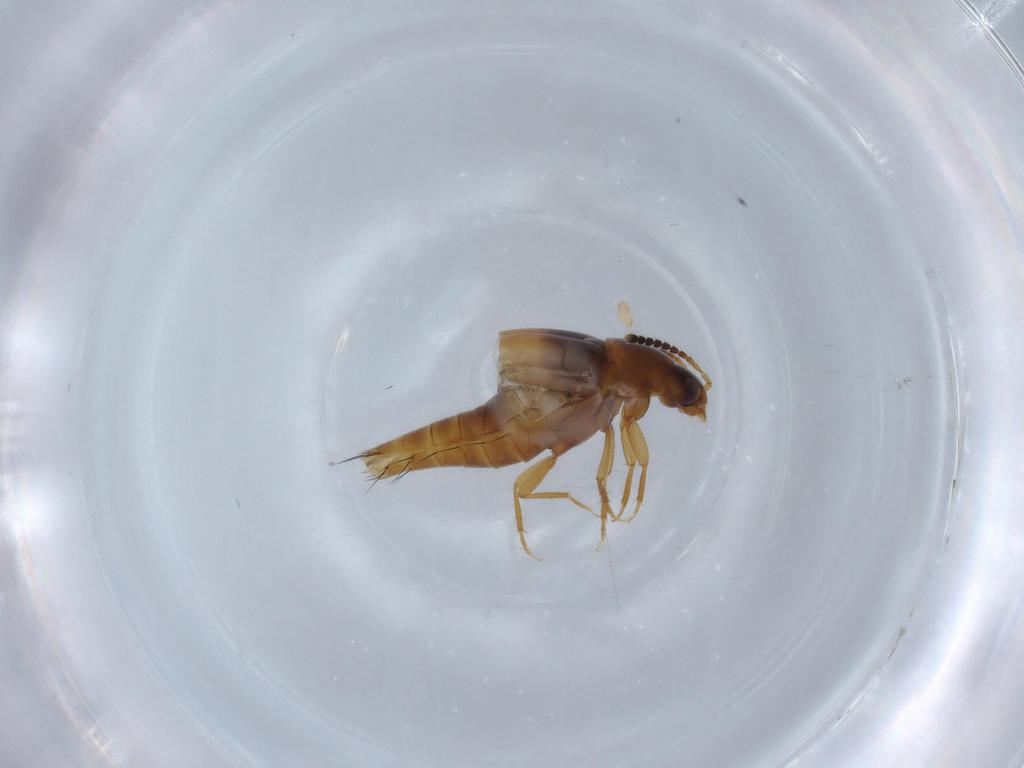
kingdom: Animalia
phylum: Arthropoda
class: Insecta
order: Coleoptera
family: Staphylinidae
